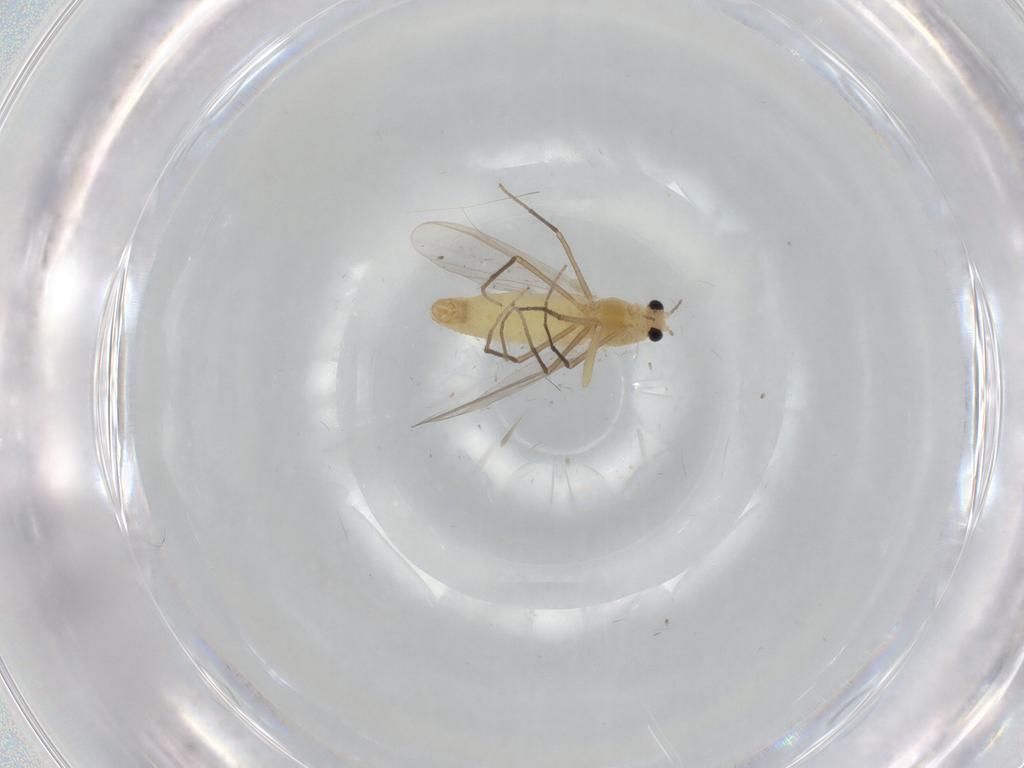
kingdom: Animalia
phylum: Arthropoda
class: Insecta
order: Diptera
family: Chironomidae
